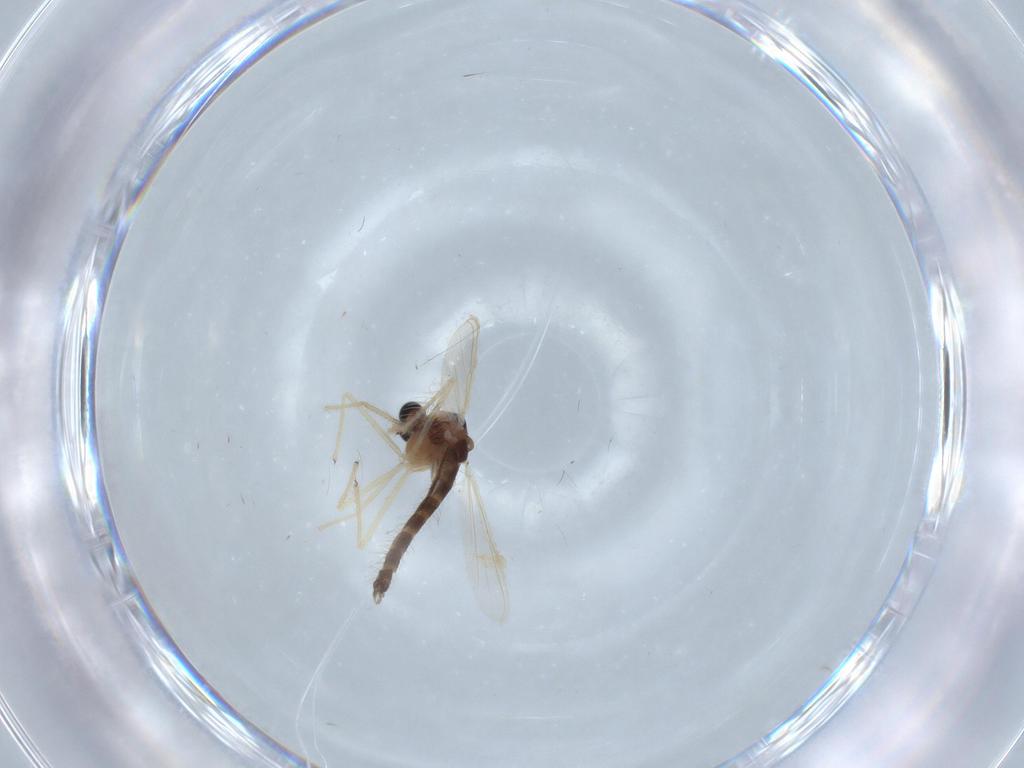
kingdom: Animalia
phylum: Arthropoda
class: Insecta
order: Diptera
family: Chironomidae
